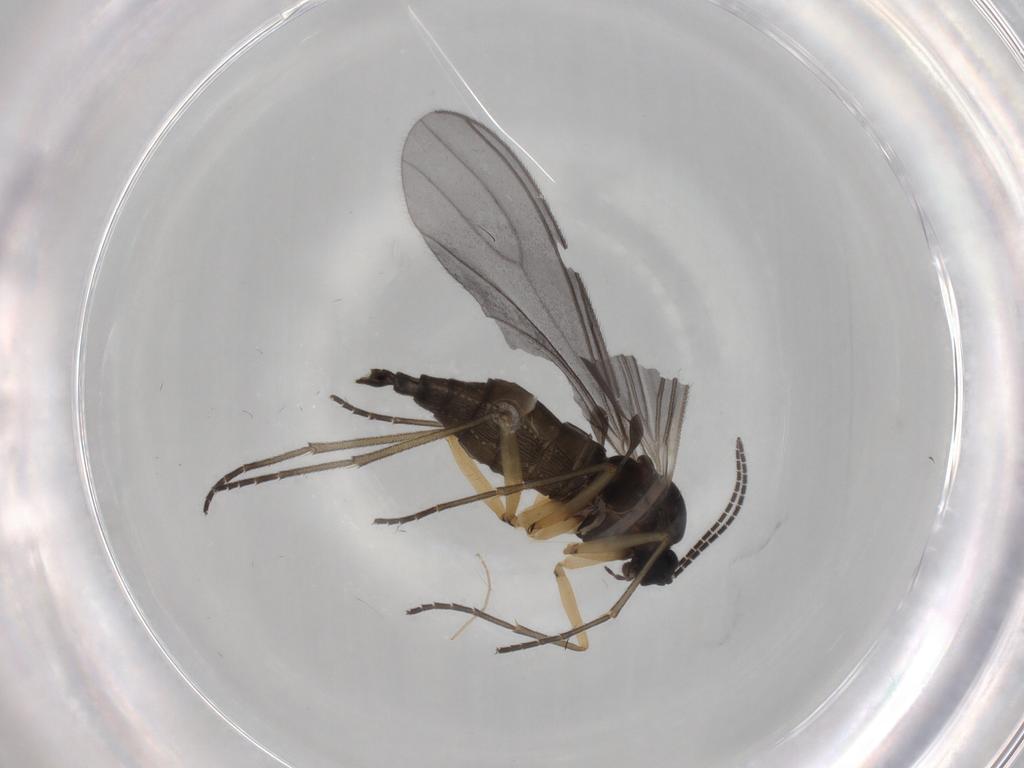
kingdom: Animalia
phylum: Arthropoda
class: Insecta
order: Diptera
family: Sciaridae
